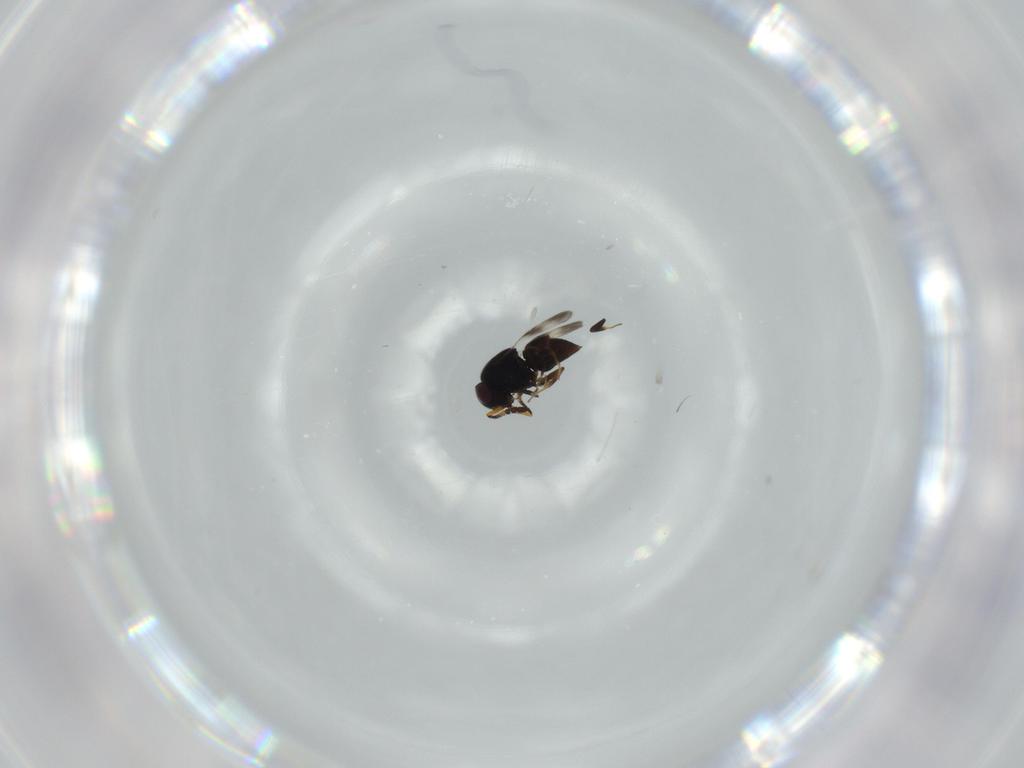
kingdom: Animalia
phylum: Arthropoda
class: Insecta
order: Hymenoptera
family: Ceraphronidae
